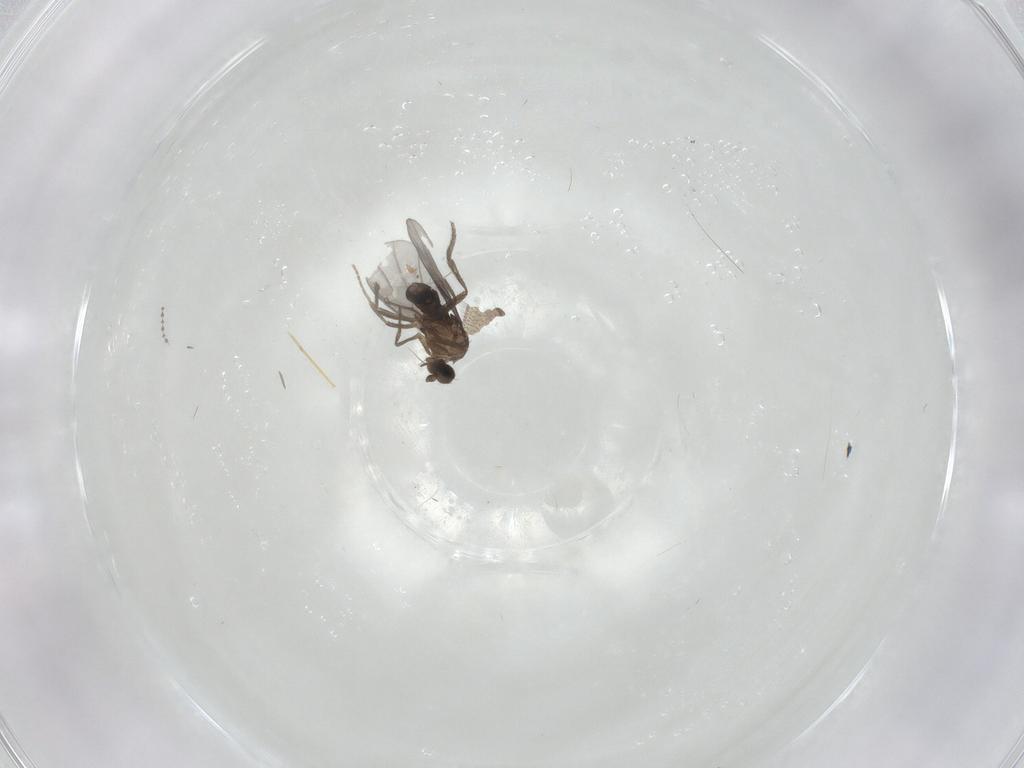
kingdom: Animalia
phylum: Arthropoda
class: Insecta
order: Diptera
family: Cecidomyiidae
